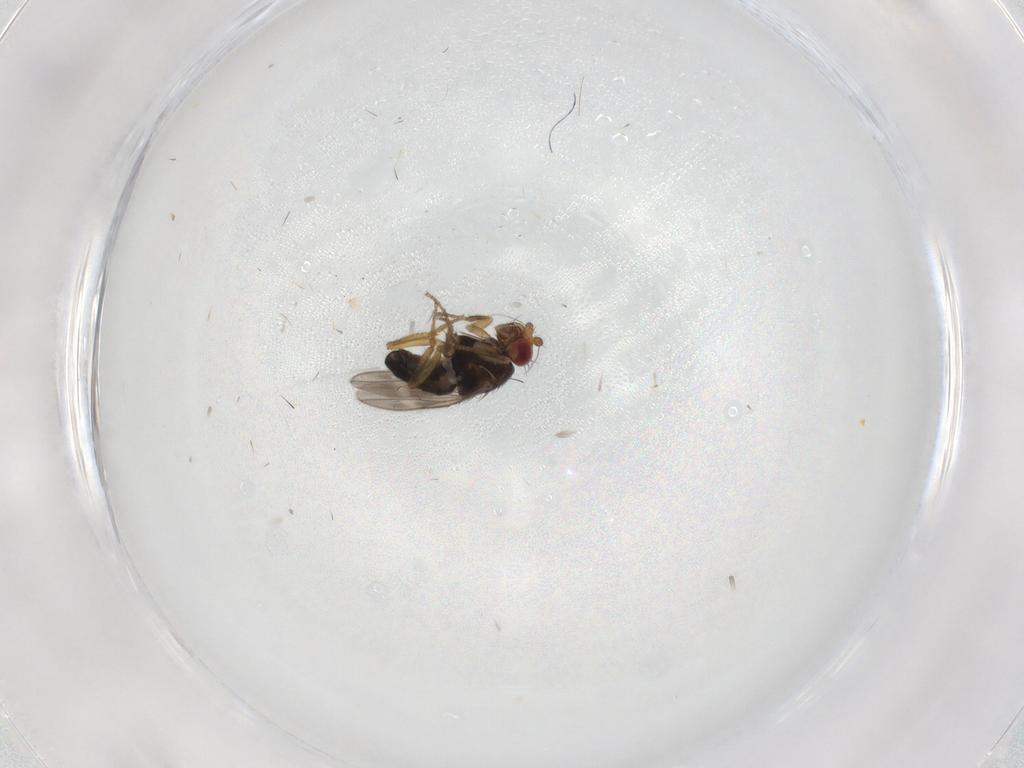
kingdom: Animalia
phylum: Arthropoda
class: Insecta
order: Diptera
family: Sphaeroceridae
